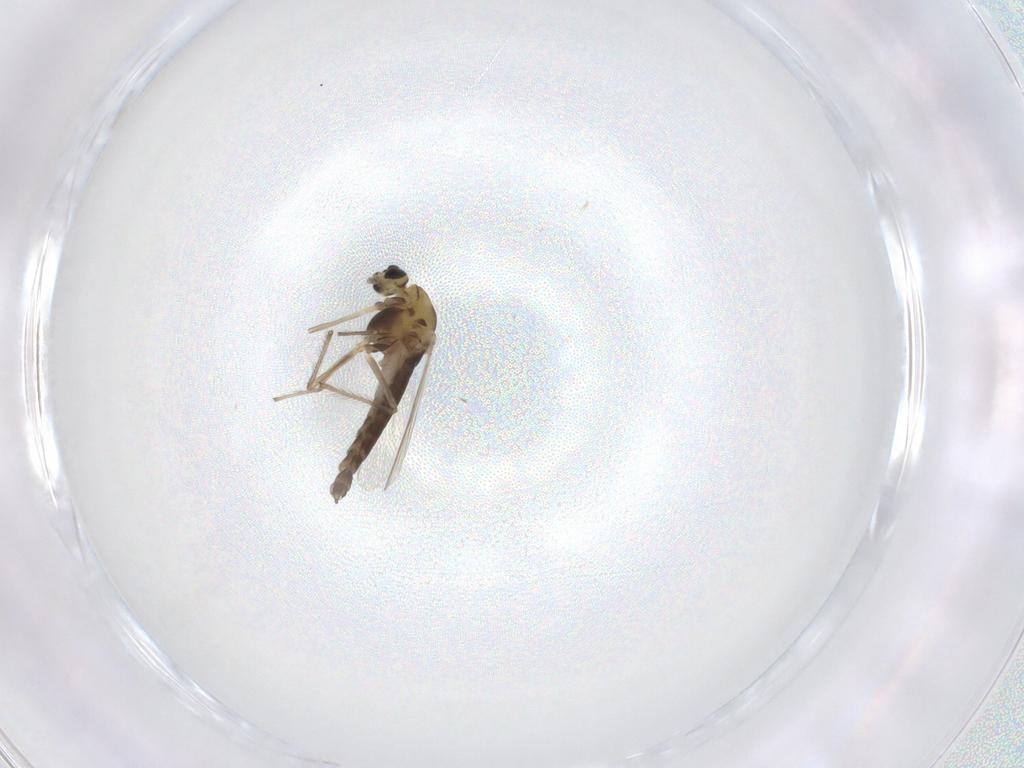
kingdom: Animalia
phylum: Arthropoda
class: Insecta
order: Diptera
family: Chironomidae
